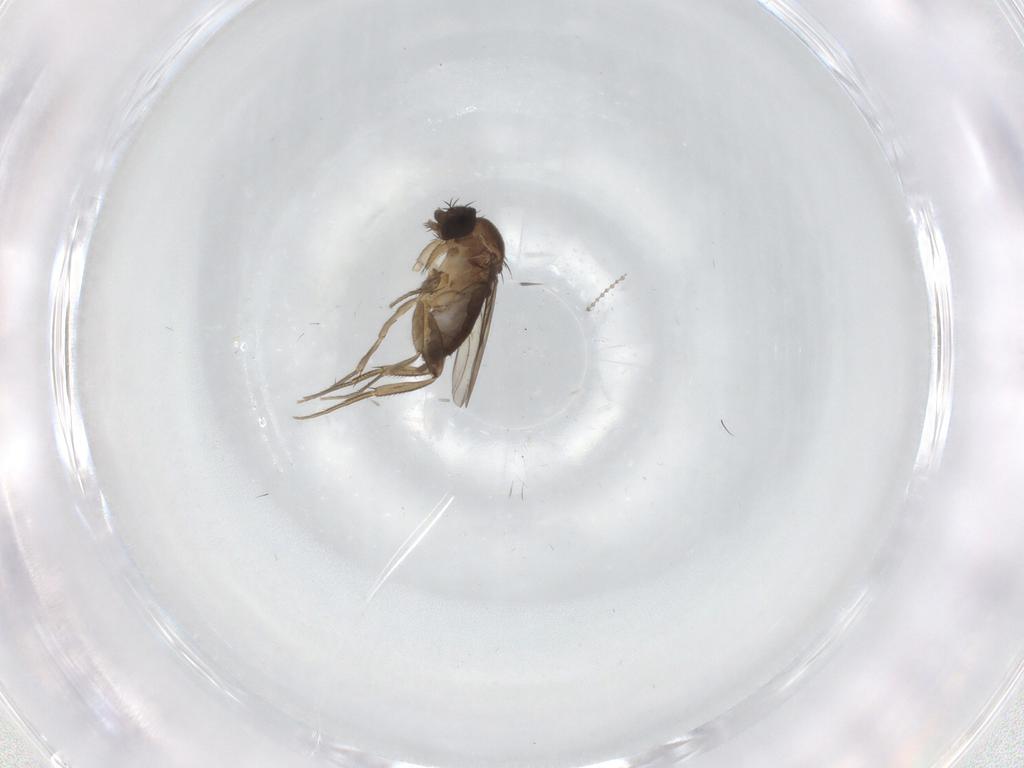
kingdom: Animalia
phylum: Arthropoda
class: Insecta
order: Diptera
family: Phoridae
